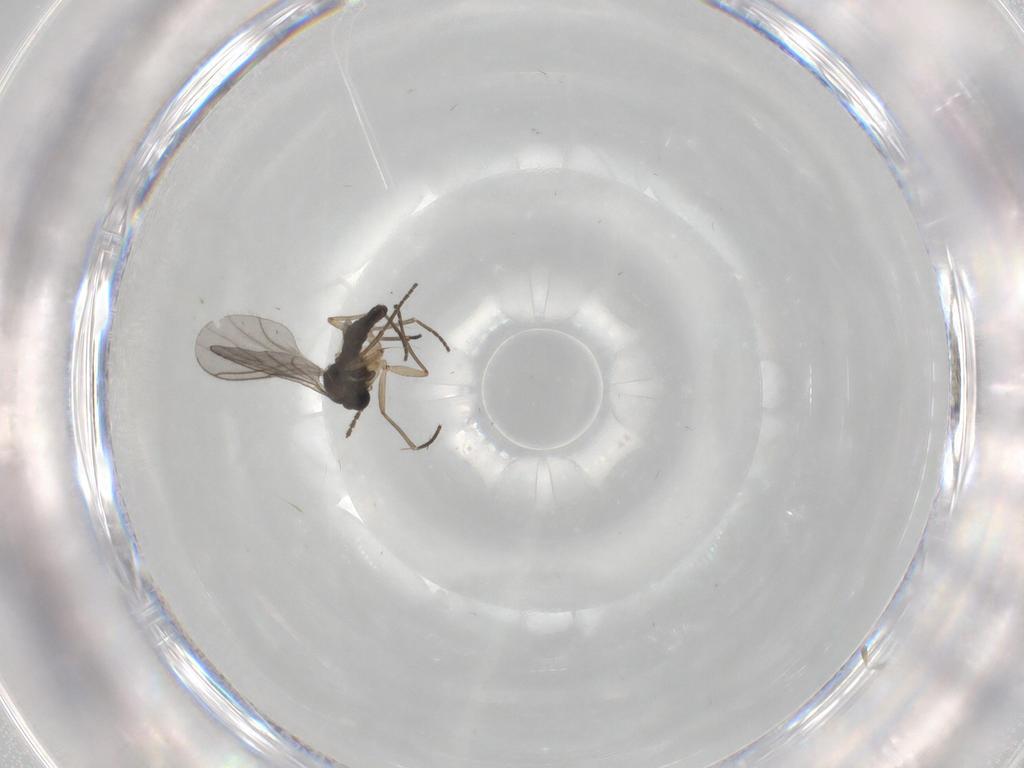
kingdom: Animalia
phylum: Arthropoda
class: Insecta
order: Diptera
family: Sciaridae
